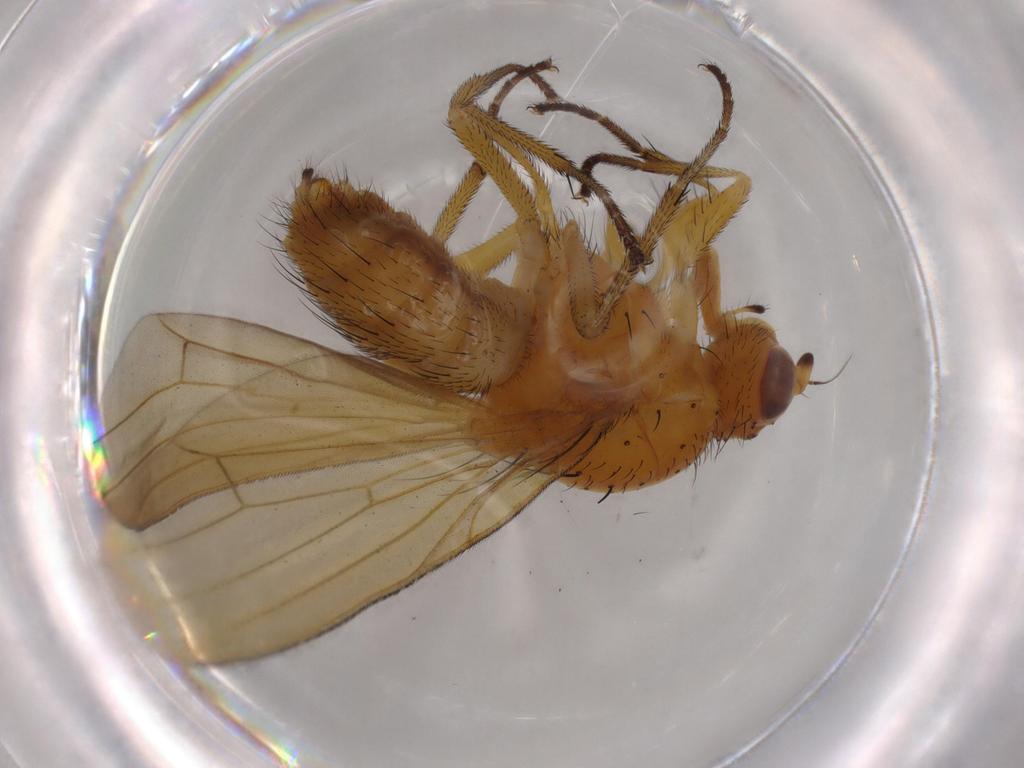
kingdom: Animalia
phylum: Arthropoda
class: Insecta
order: Diptera
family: Lauxaniidae
